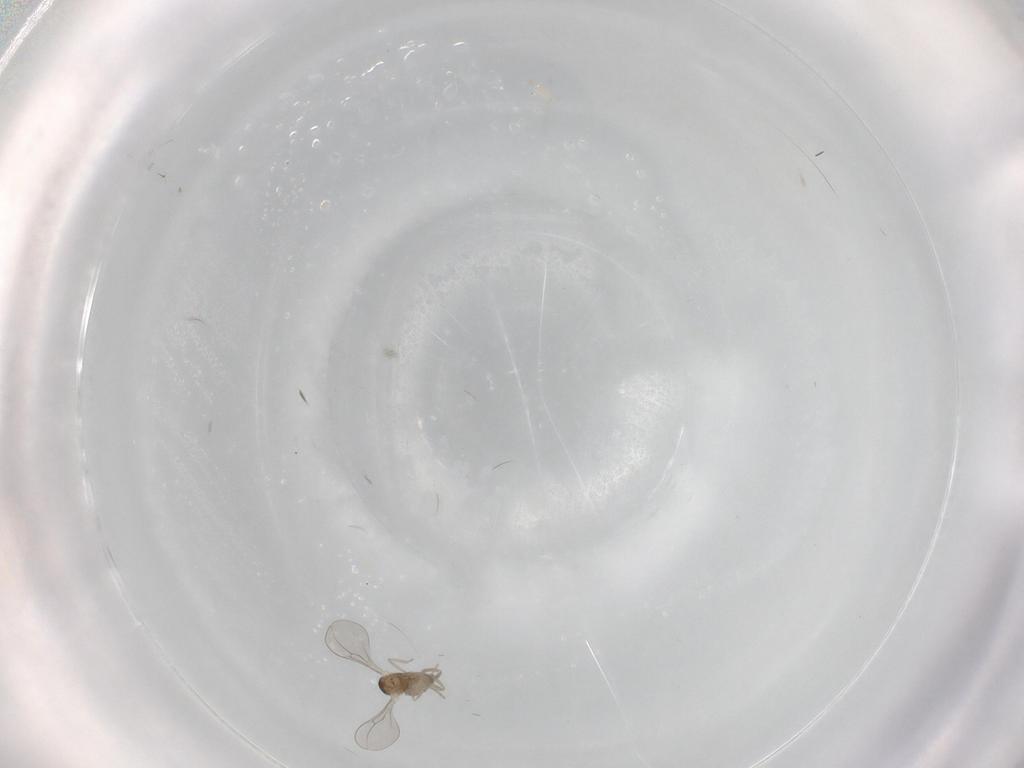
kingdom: Animalia
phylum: Arthropoda
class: Insecta
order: Diptera
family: Cecidomyiidae
